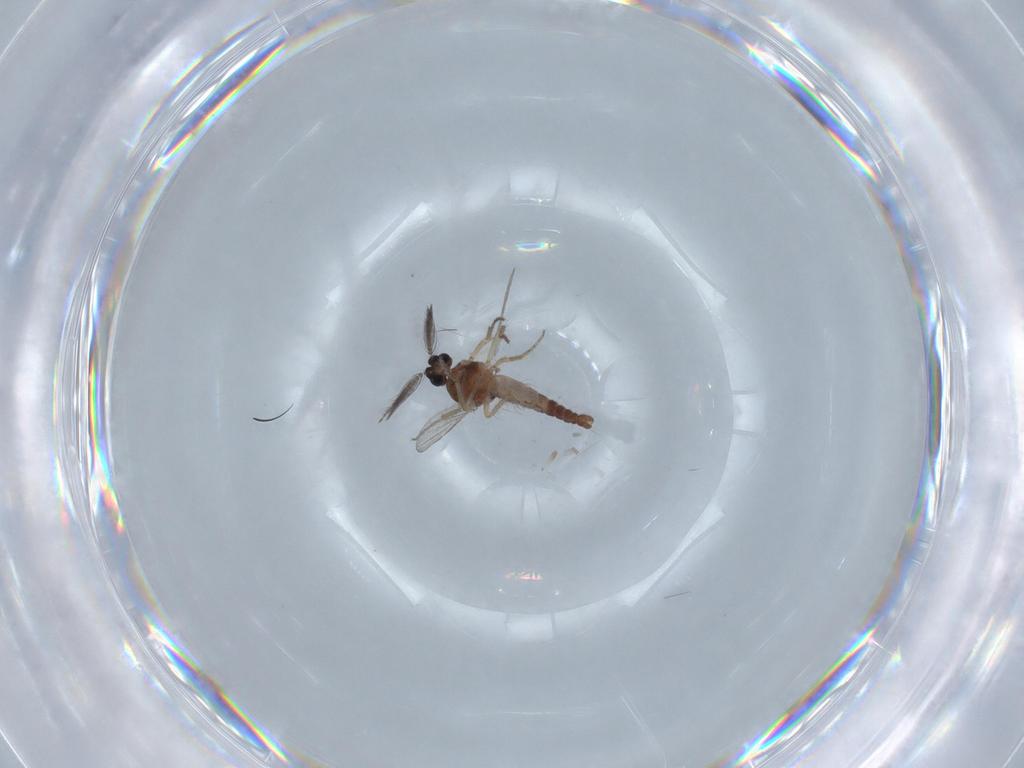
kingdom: Animalia
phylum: Arthropoda
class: Insecta
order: Diptera
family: Ceratopogonidae
